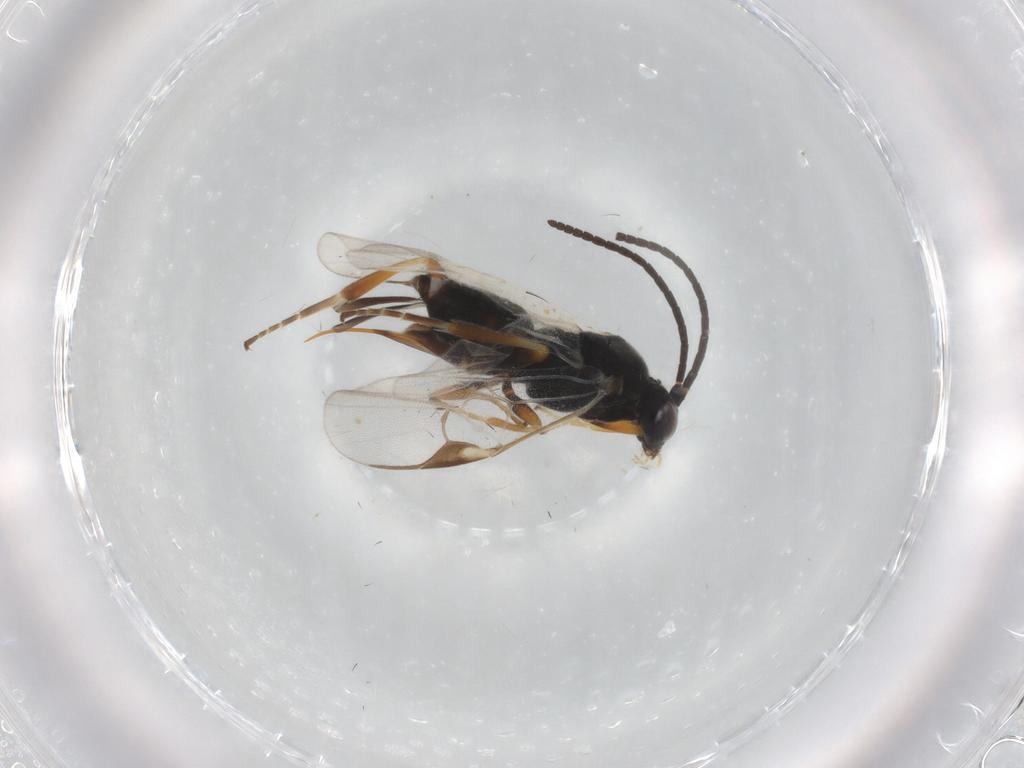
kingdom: Animalia
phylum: Arthropoda
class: Insecta
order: Hymenoptera
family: Braconidae
